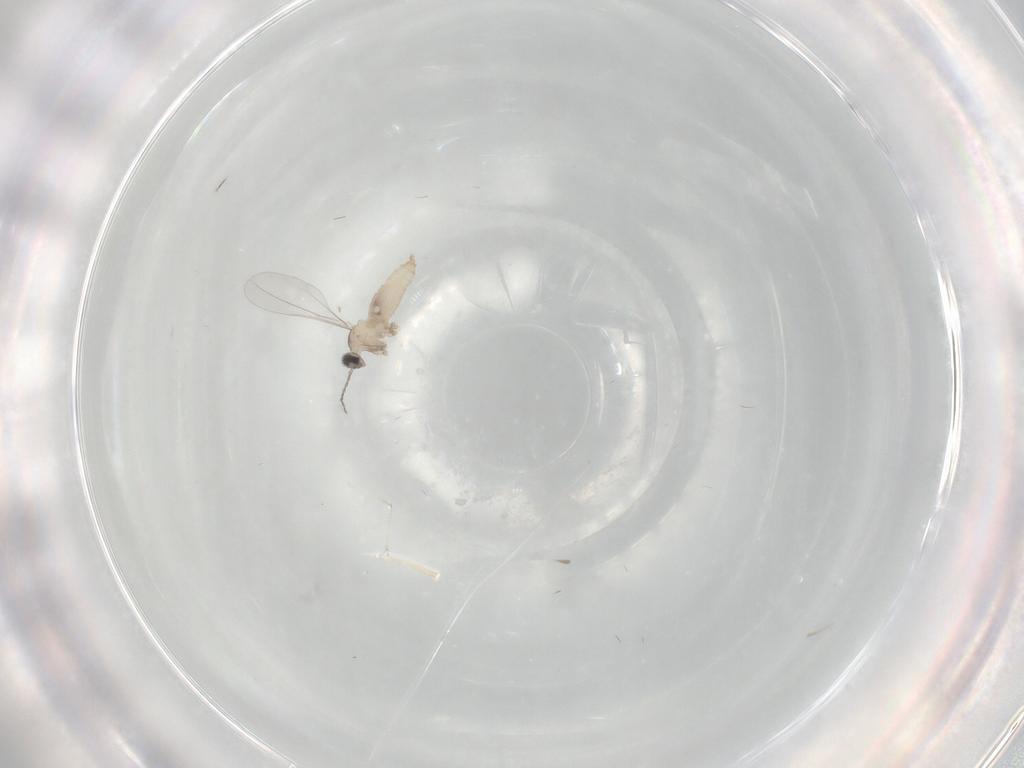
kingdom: Animalia
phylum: Arthropoda
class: Insecta
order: Diptera
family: Cecidomyiidae
